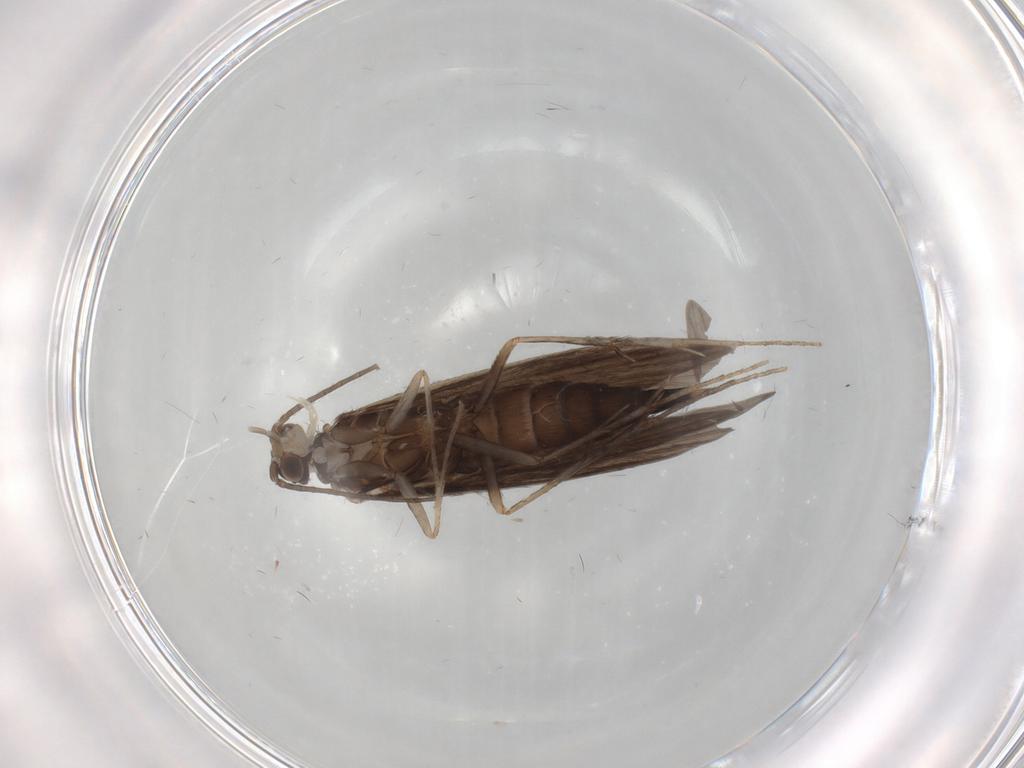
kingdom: Animalia
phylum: Arthropoda
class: Insecta
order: Trichoptera
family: Xiphocentronidae
